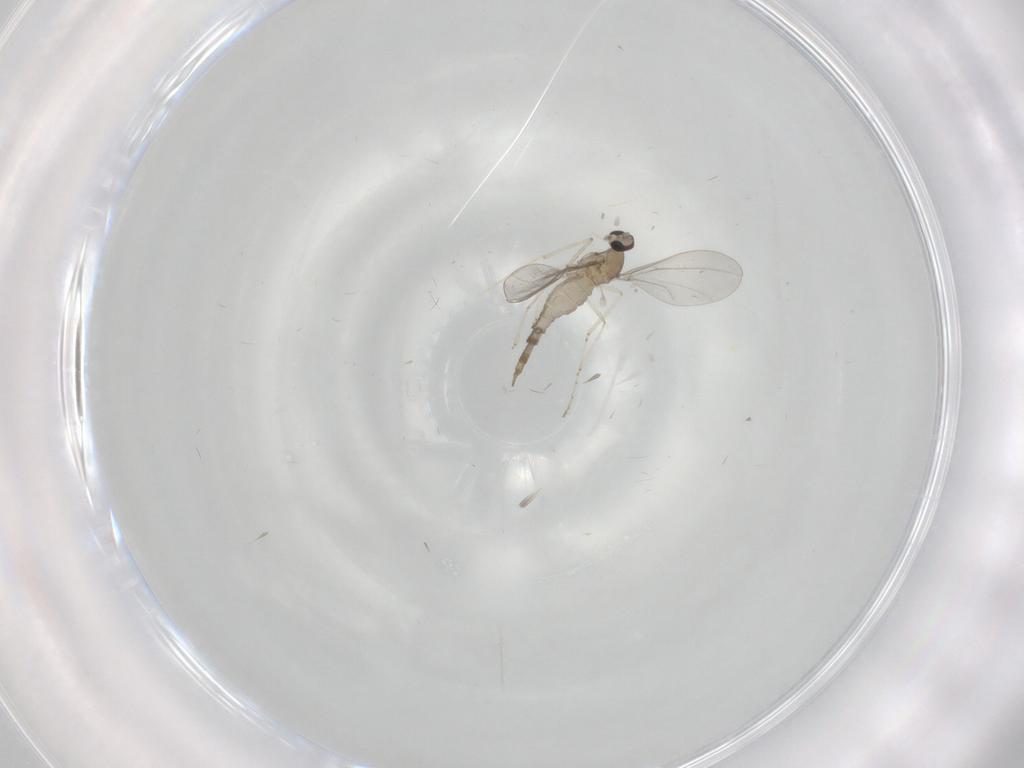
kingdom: Animalia
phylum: Arthropoda
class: Insecta
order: Diptera
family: Cecidomyiidae
